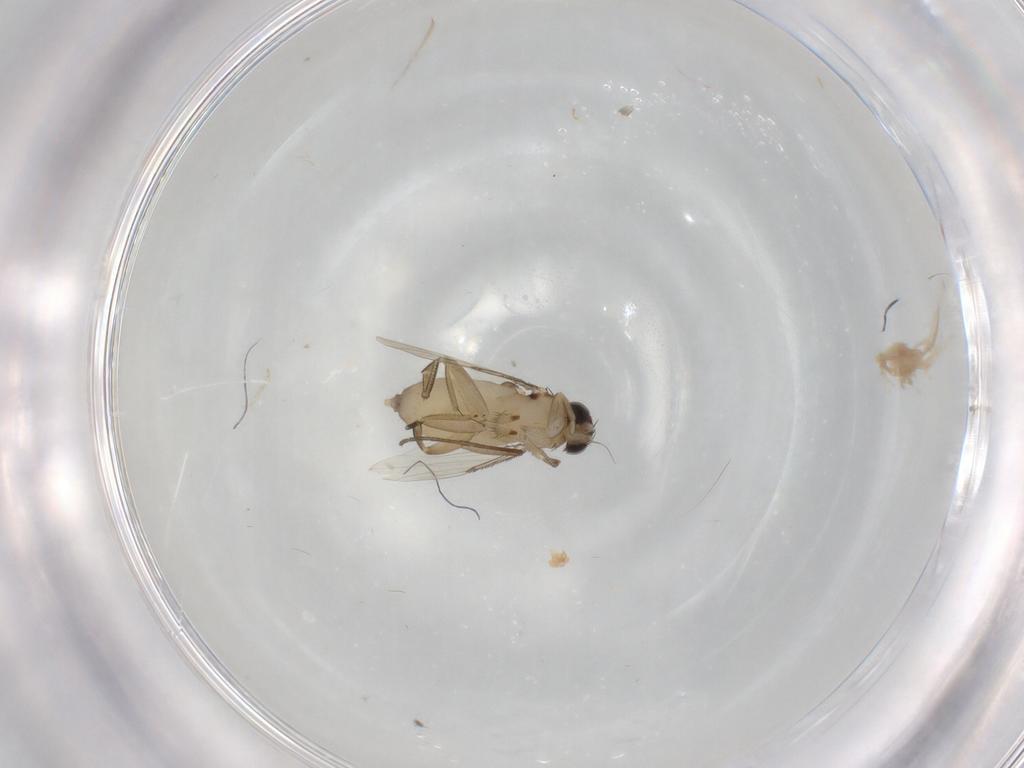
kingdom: Animalia
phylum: Arthropoda
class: Insecta
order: Diptera
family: Phoridae
